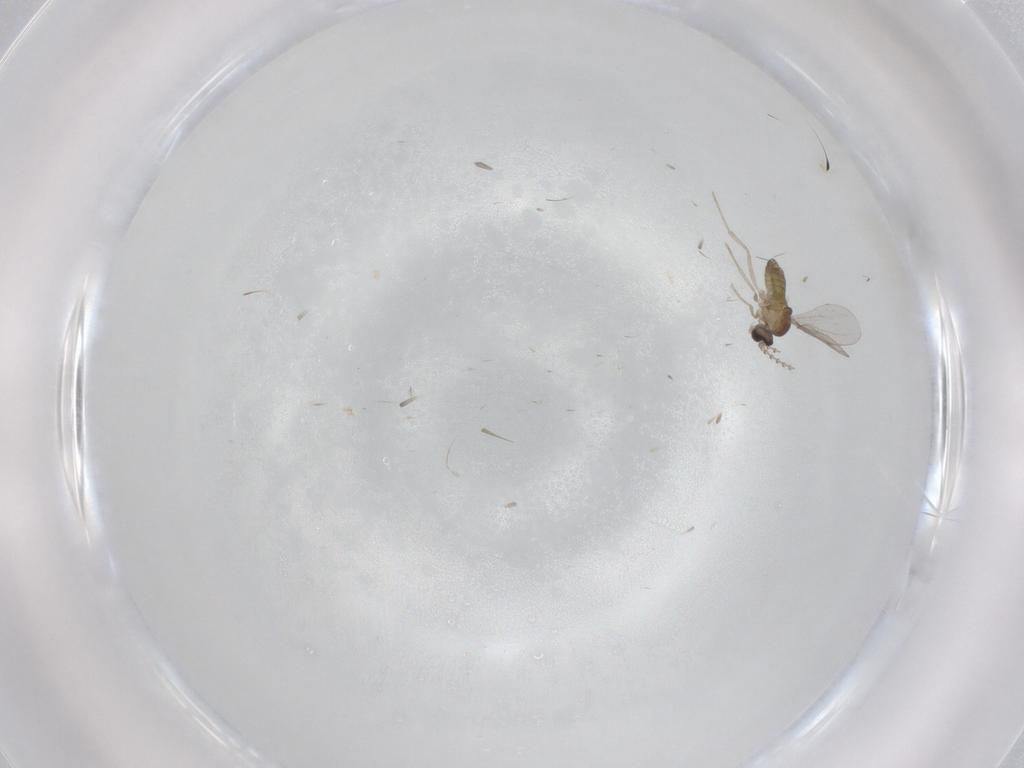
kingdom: Animalia
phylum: Arthropoda
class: Insecta
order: Diptera
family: Cecidomyiidae
